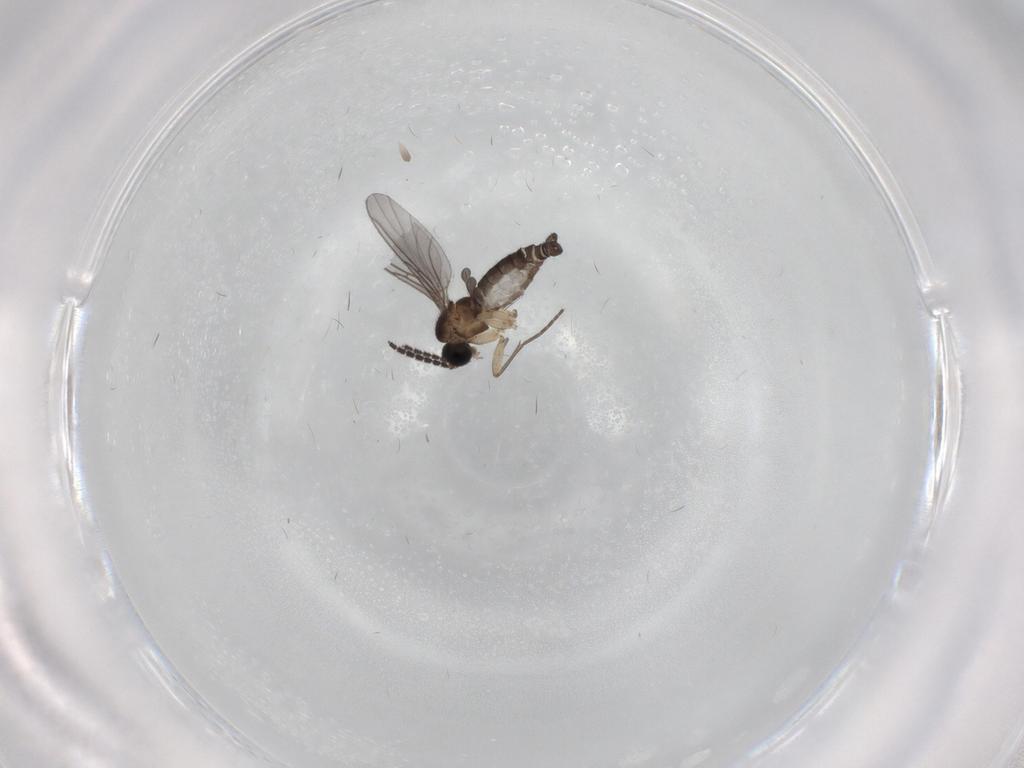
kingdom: Animalia
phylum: Arthropoda
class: Insecta
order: Diptera
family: Sciaridae
